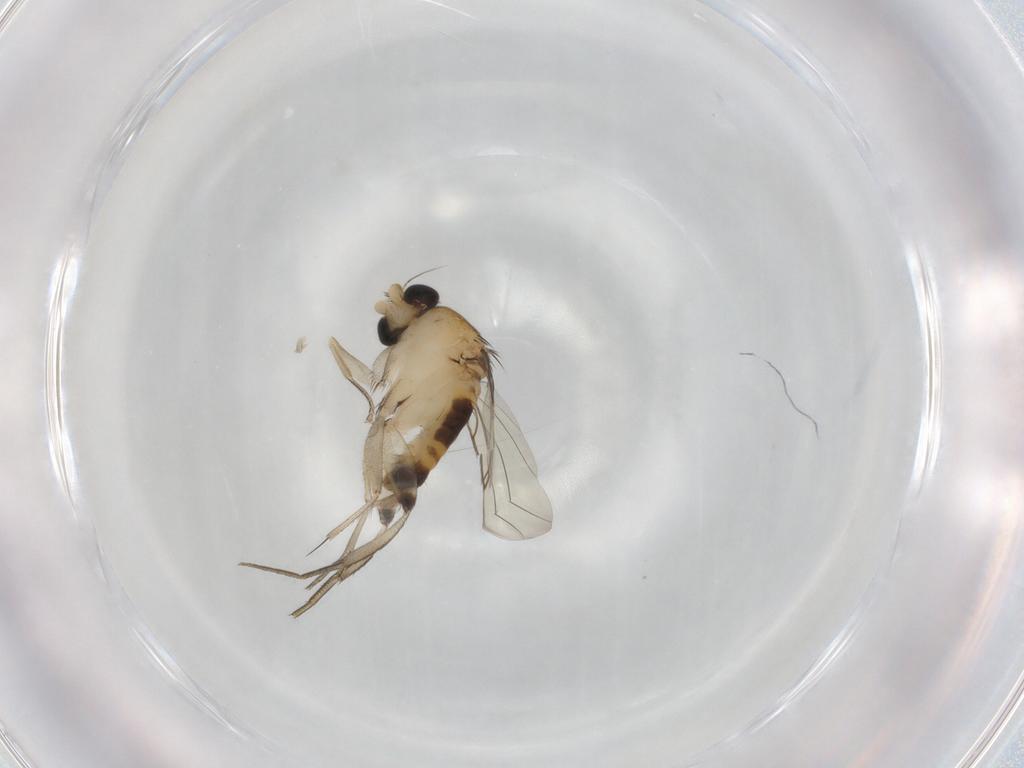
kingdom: Animalia
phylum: Arthropoda
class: Insecta
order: Diptera
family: Phoridae
